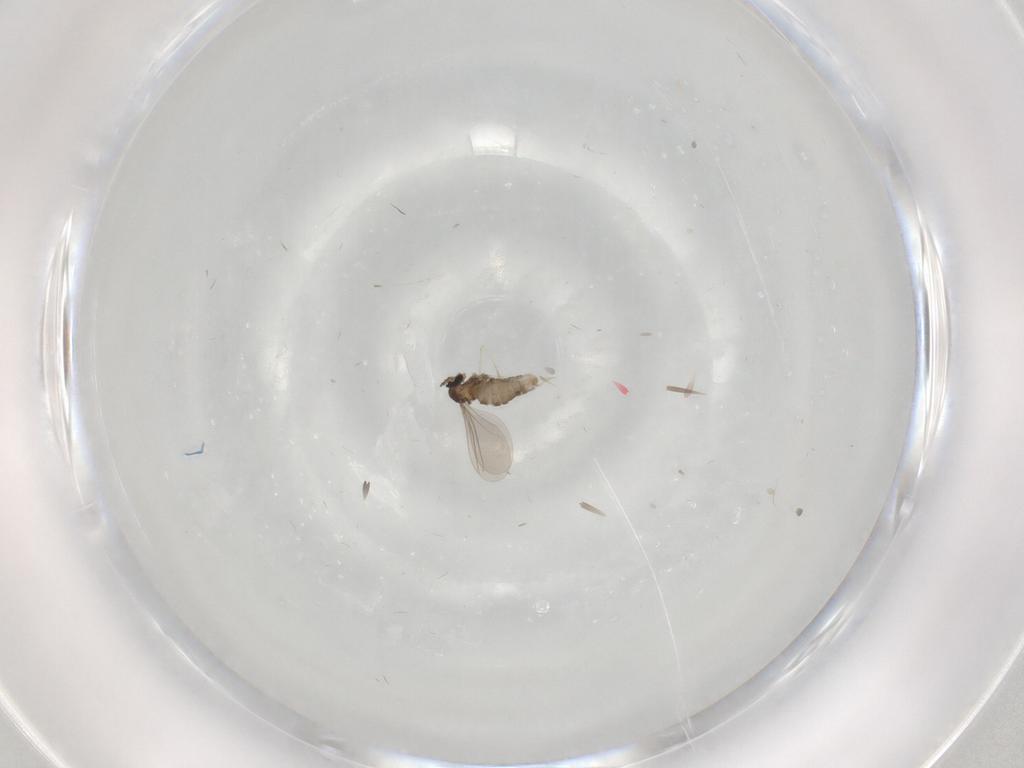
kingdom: Animalia
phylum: Arthropoda
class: Insecta
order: Diptera
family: Cecidomyiidae
